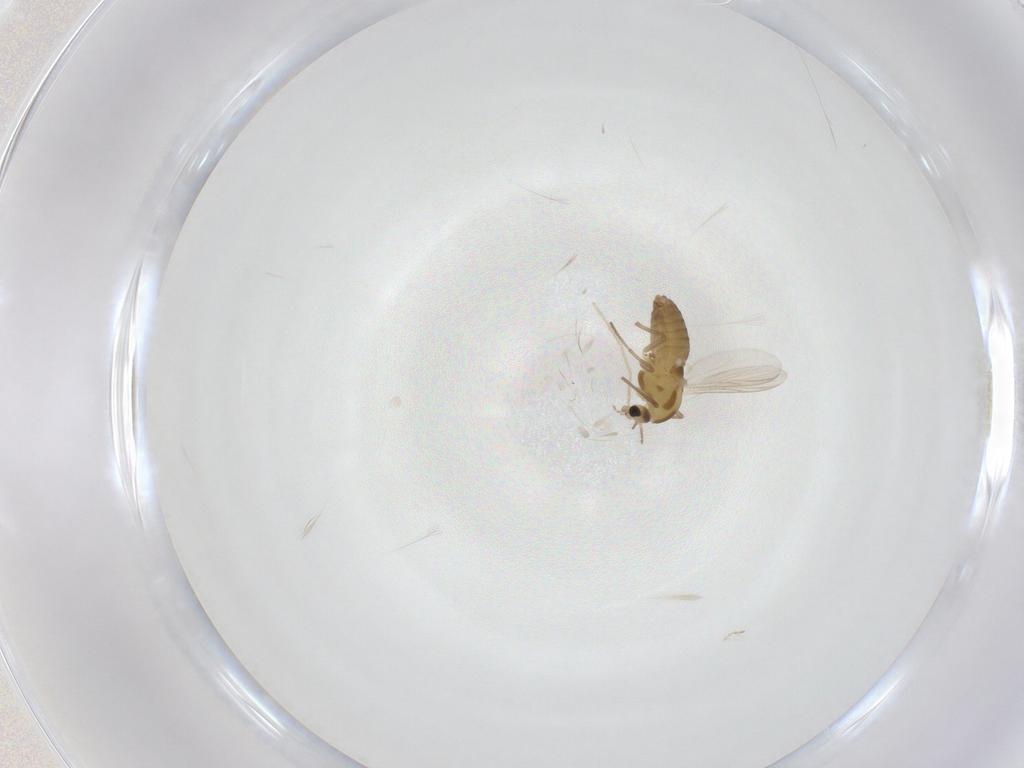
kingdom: Animalia
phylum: Arthropoda
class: Insecta
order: Diptera
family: Chironomidae
